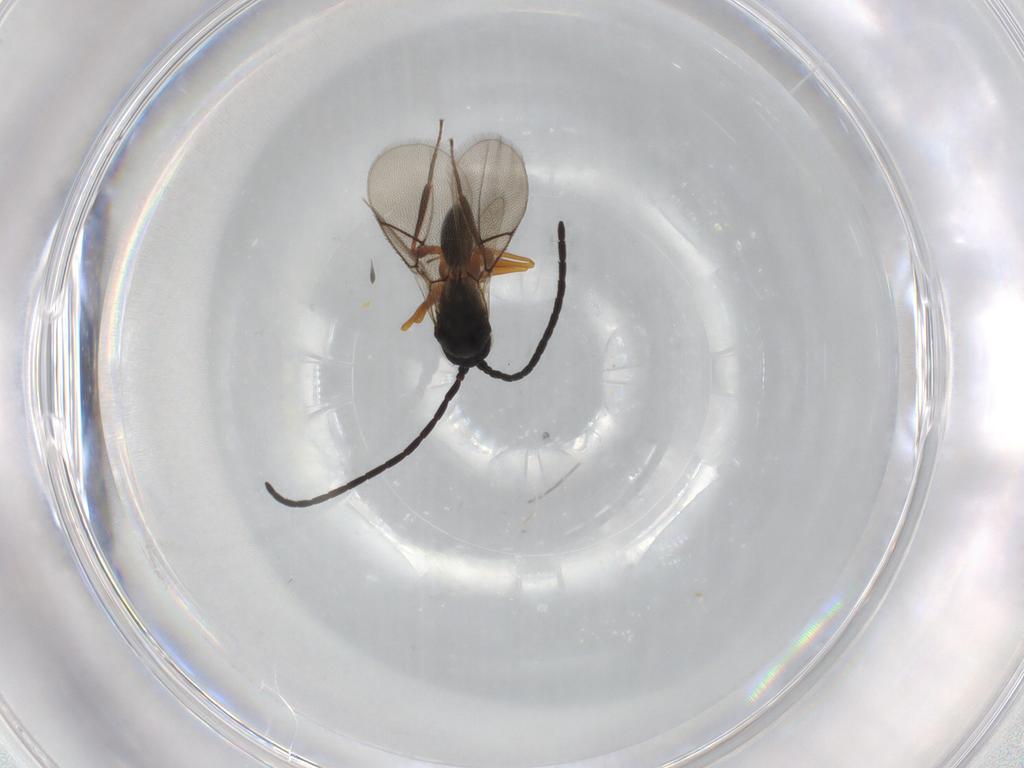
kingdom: Animalia
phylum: Arthropoda
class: Insecta
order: Hymenoptera
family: Figitidae
